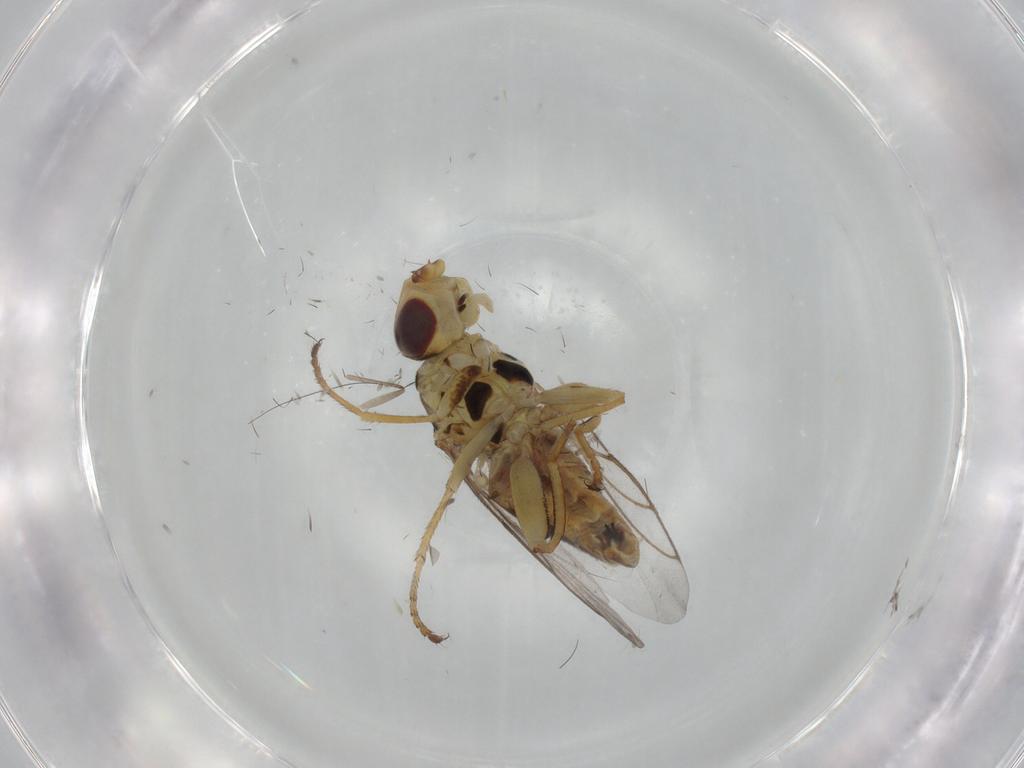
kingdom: Animalia
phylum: Arthropoda
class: Insecta
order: Diptera
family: Chloropidae
